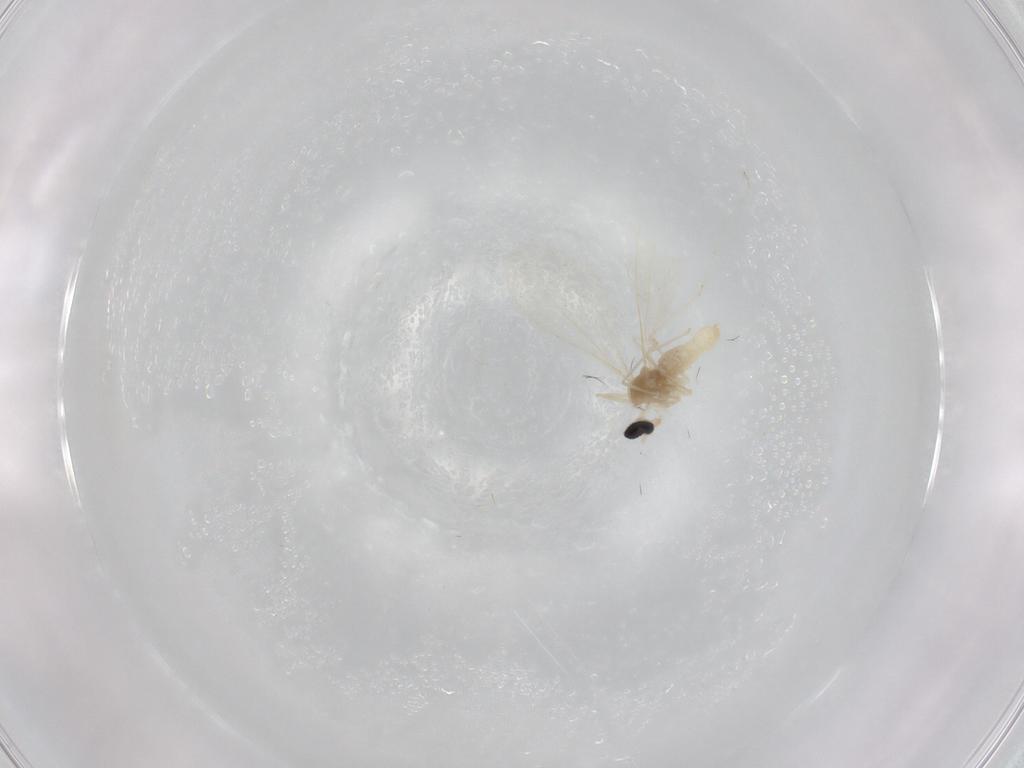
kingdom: Animalia
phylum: Arthropoda
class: Insecta
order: Diptera
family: Cecidomyiidae
